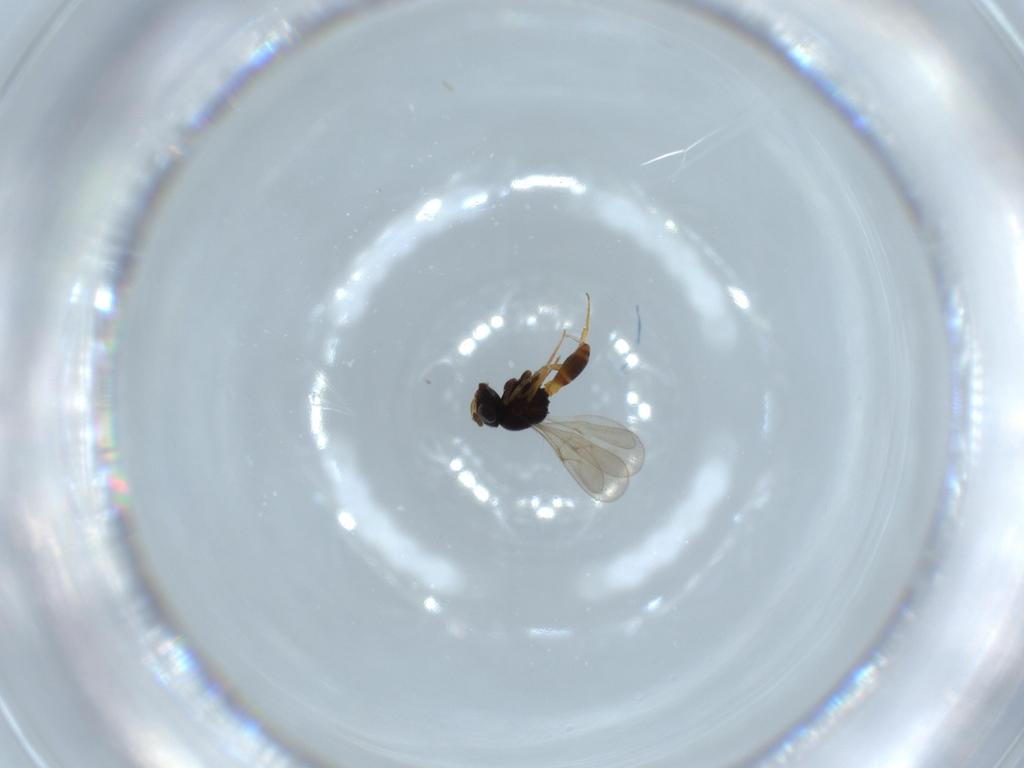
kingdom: Animalia
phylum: Arthropoda
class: Insecta
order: Hymenoptera
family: Scelionidae
